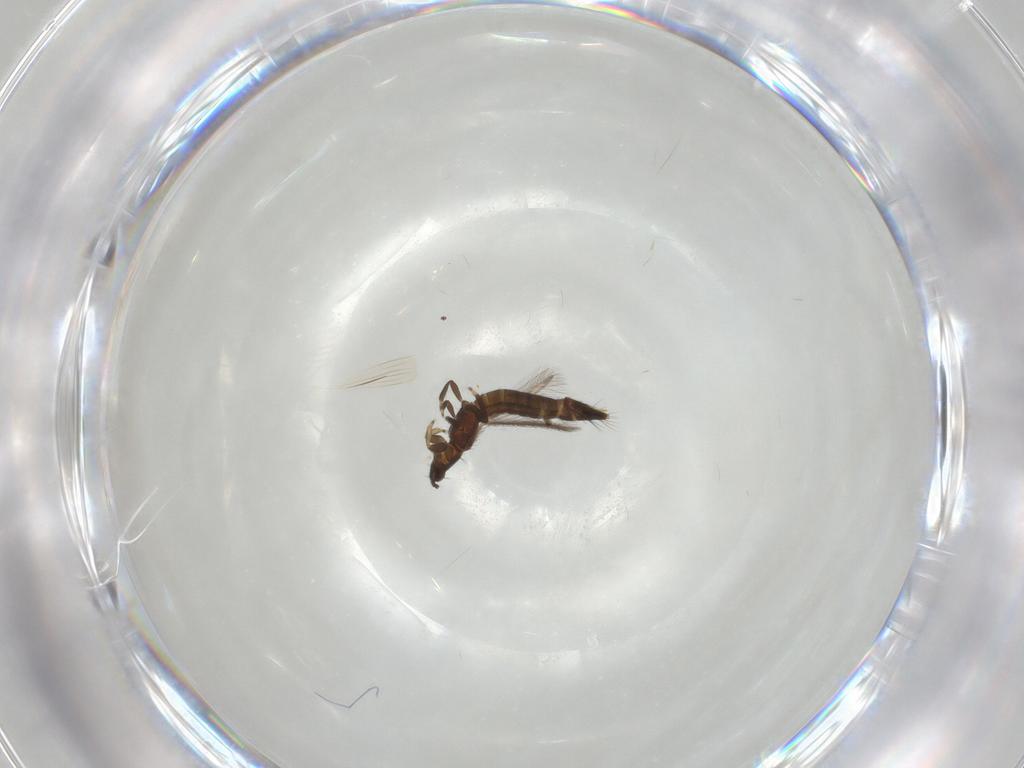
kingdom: Animalia
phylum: Arthropoda
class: Insecta
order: Thysanoptera
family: Thripidae
